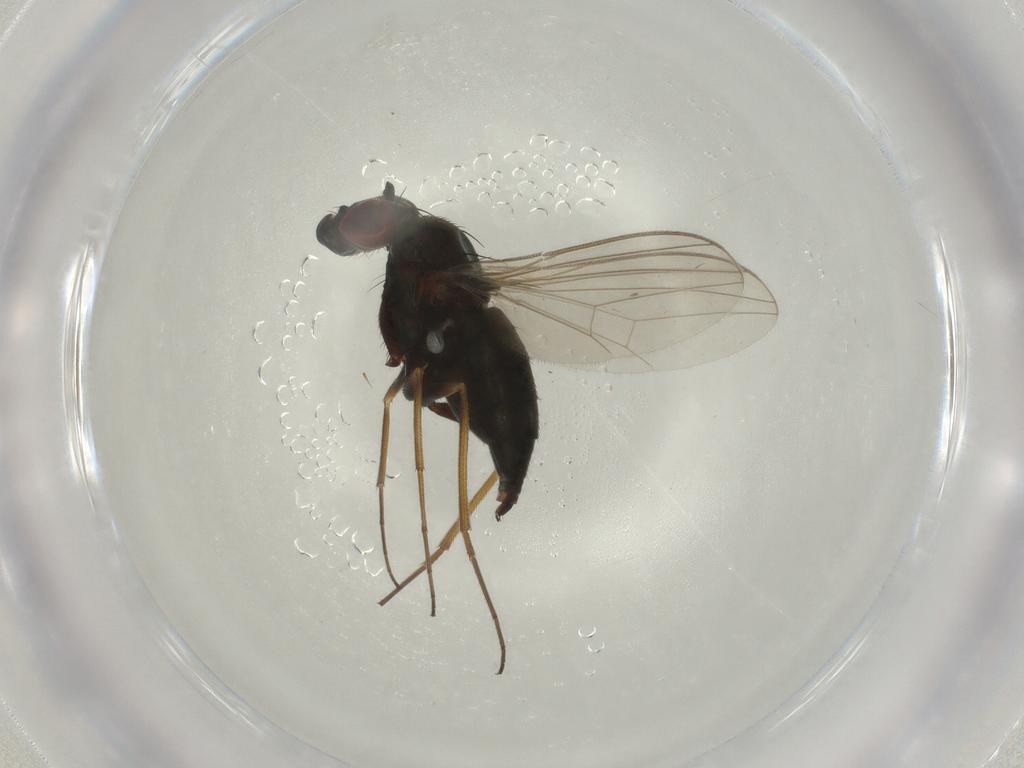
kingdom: Animalia
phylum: Arthropoda
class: Insecta
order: Diptera
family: Dolichopodidae
